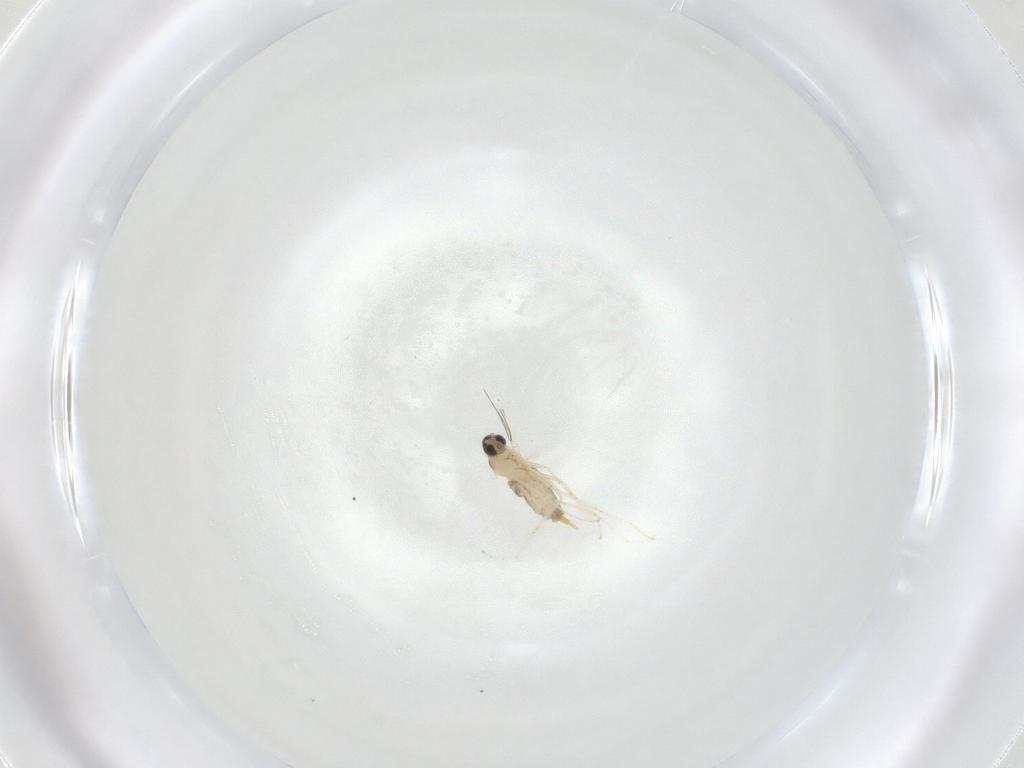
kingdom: Animalia
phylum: Arthropoda
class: Insecta
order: Diptera
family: Cecidomyiidae
